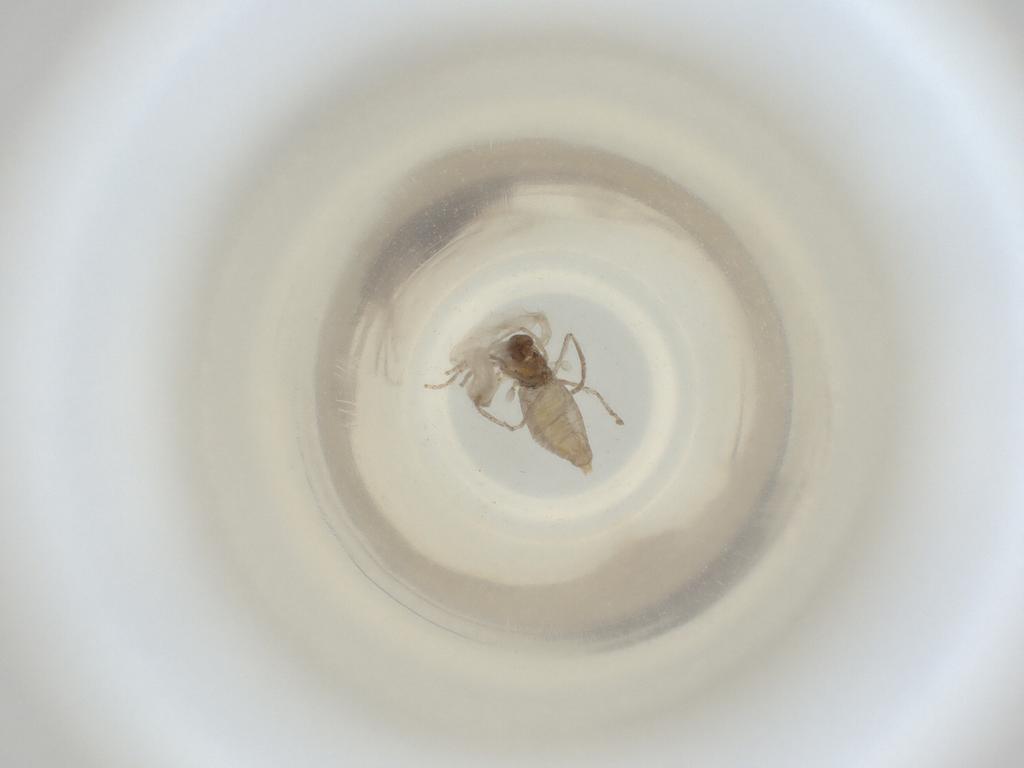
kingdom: Animalia
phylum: Arthropoda
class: Insecta
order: Diptera
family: Cecidomyiidae
